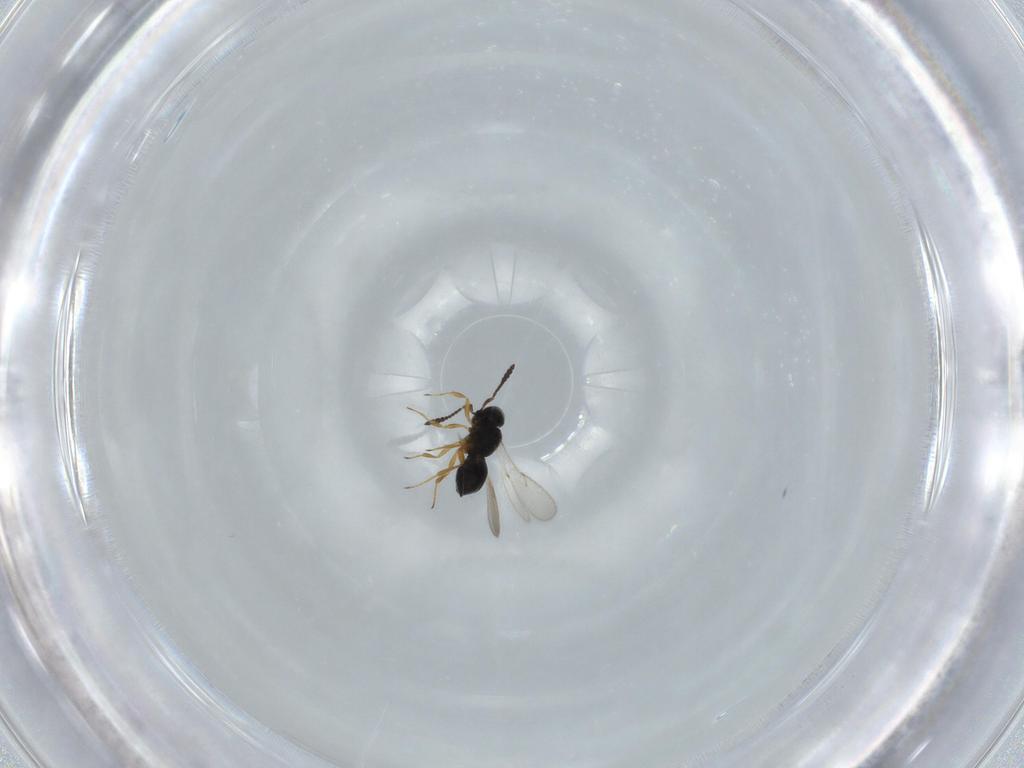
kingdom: Animalia
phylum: Arthropoda
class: Insecta
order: Hymenoptera
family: Scelionidae
